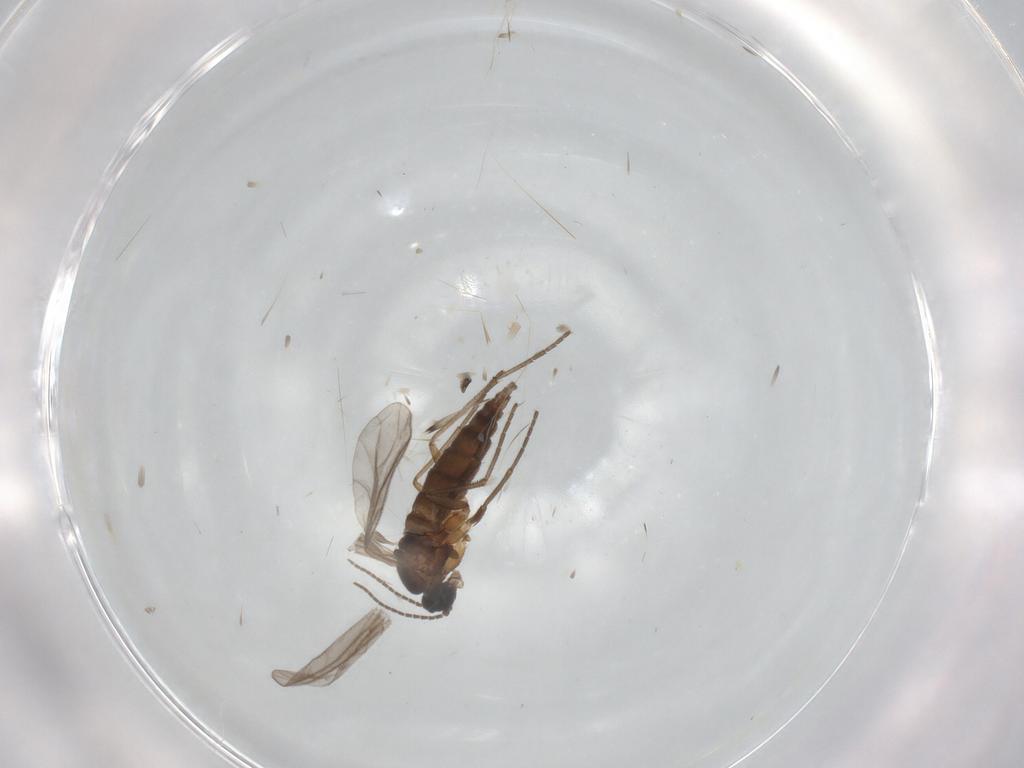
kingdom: Animalia
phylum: Arthropoda
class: Insecta
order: Diptera
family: Sciaridae
